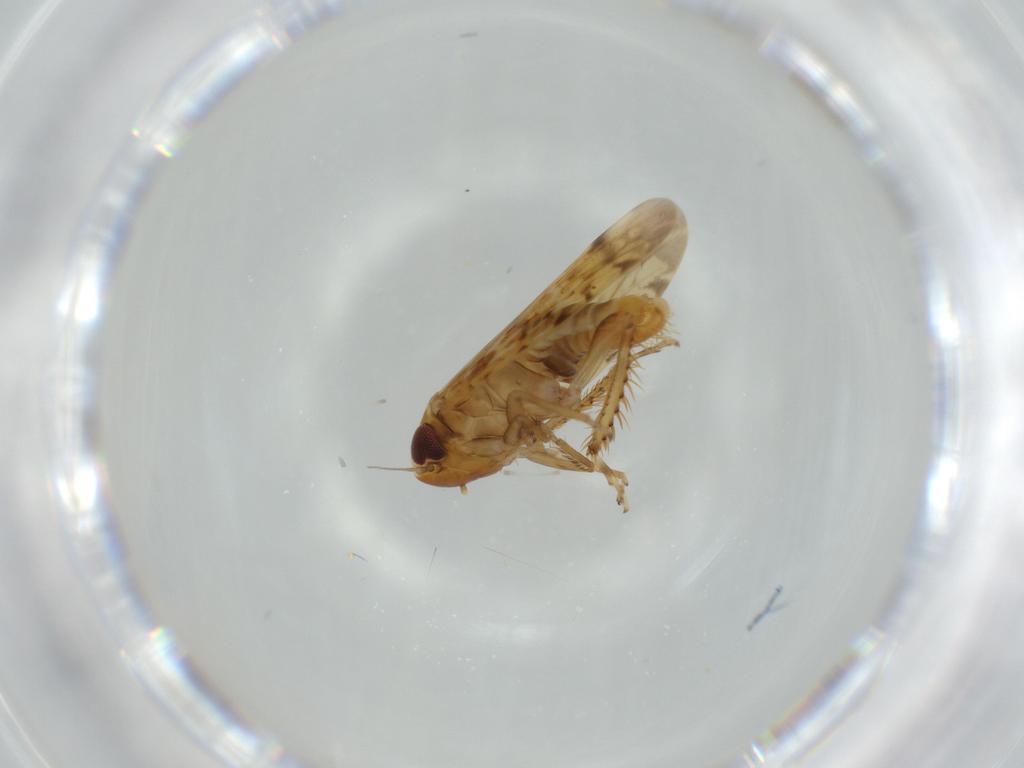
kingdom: Animalia
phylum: Arthropoda
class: Insecta
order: Hemiptera
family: Cicadellidae
